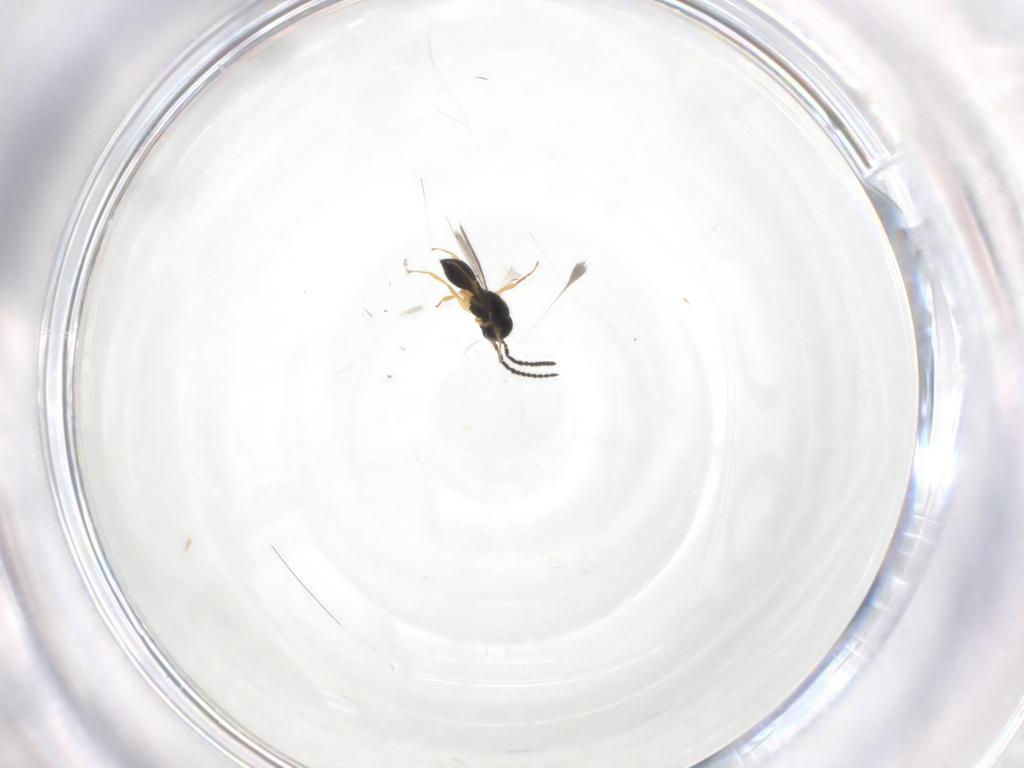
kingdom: Animalia
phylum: Arthropoda
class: Insecta
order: Hymenoptera
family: Scelionidae
